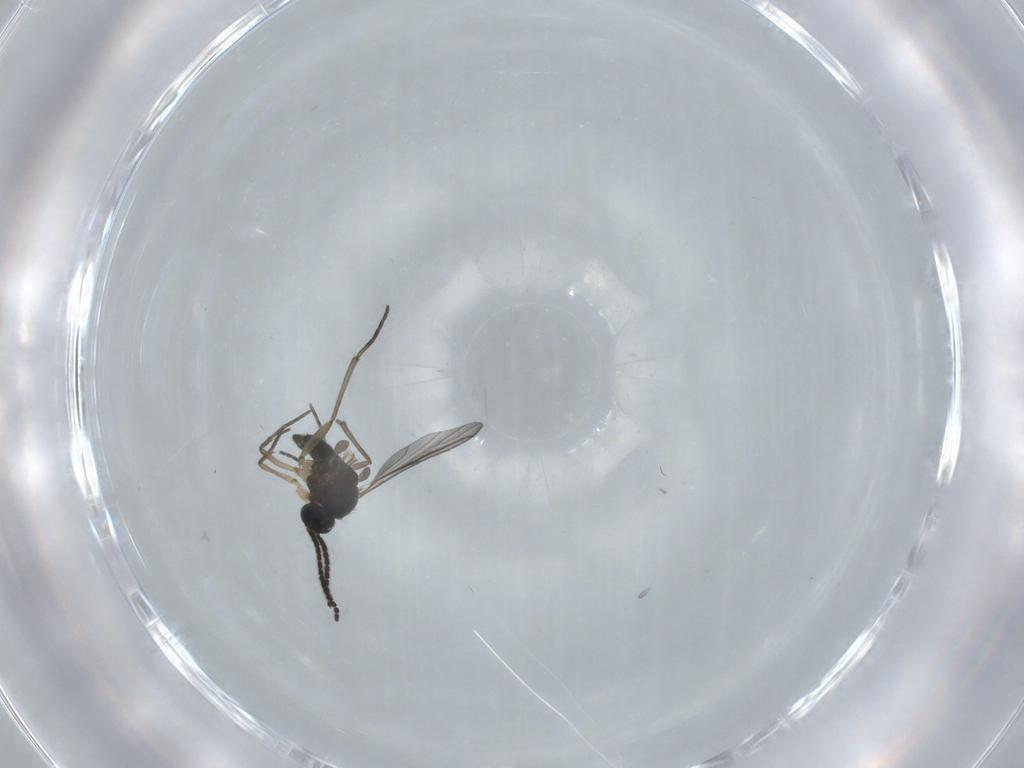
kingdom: Animalia
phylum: Arthropoda
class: Insecta
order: Diptera
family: Sciaridae
